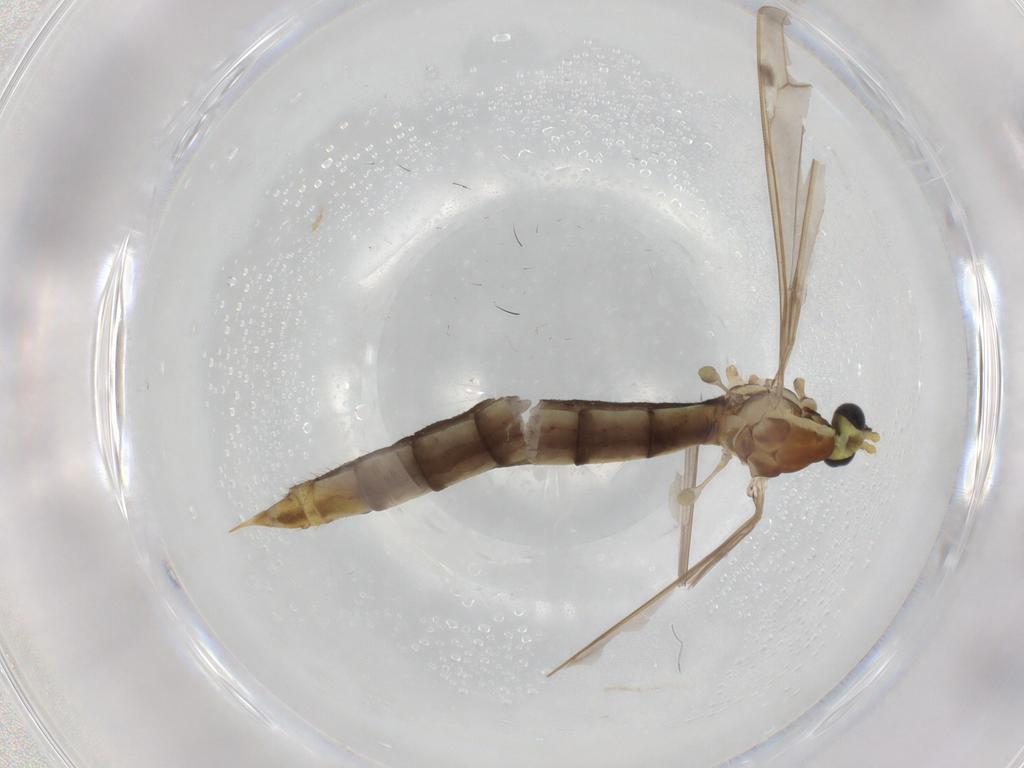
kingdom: Animalia
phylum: Arthropoda
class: Insecta
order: Diptera
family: Limoniidae
